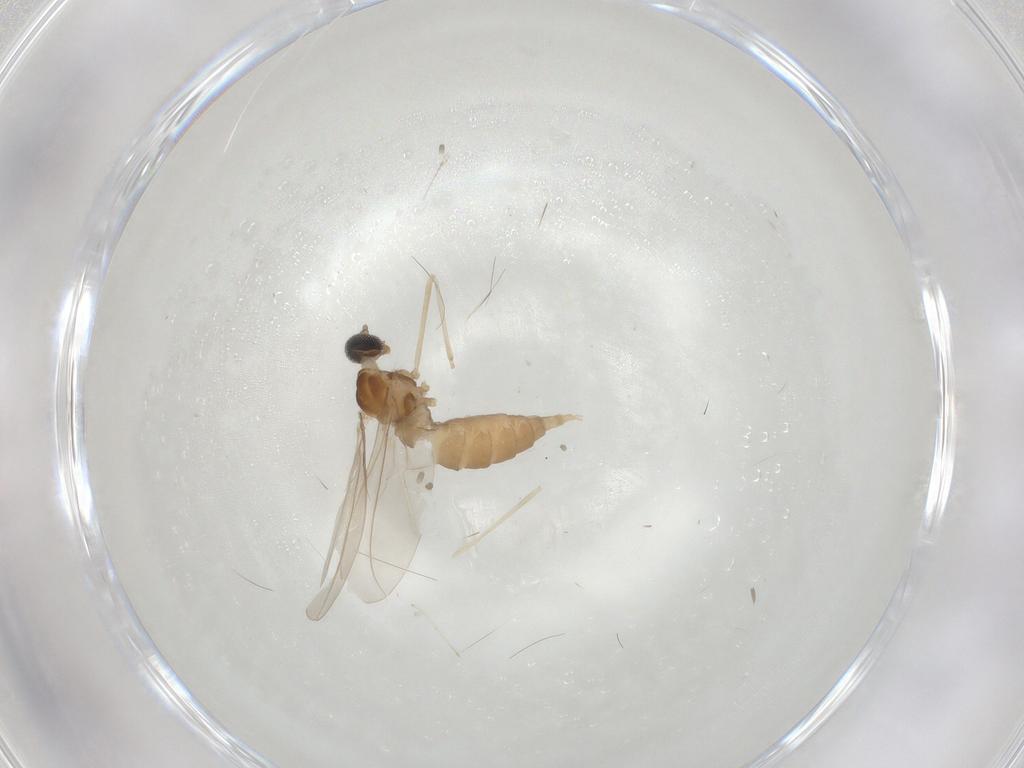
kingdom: Animalia
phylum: Arthropoda
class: Insecta
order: Diptera
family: Cecidomyiidae
